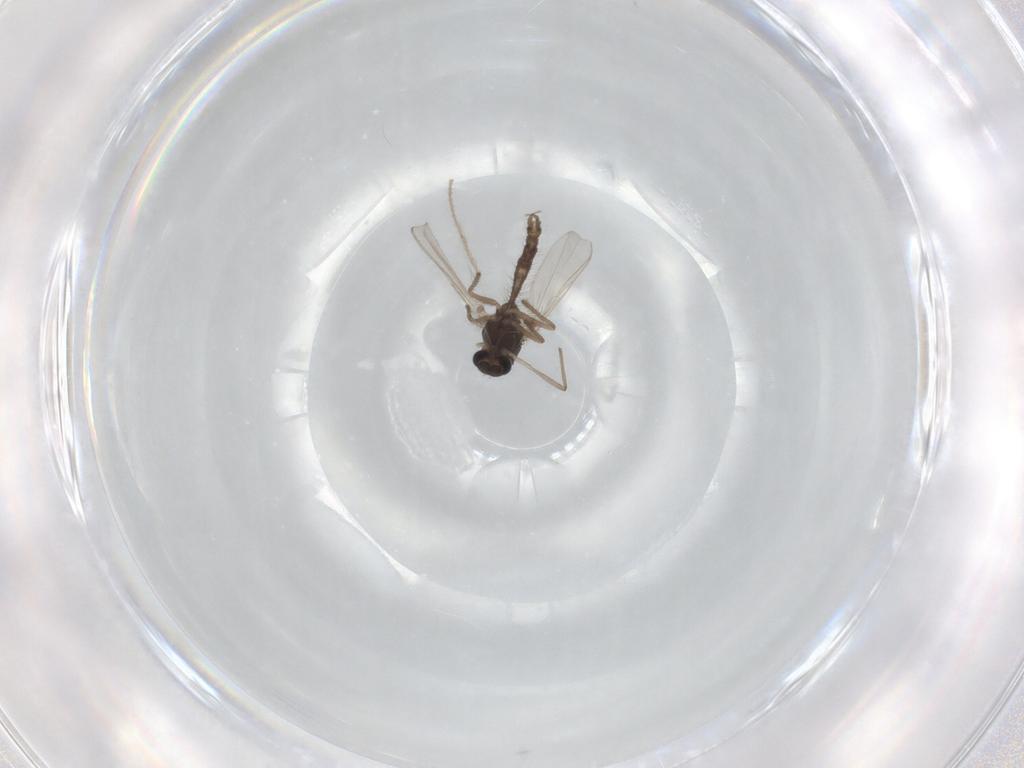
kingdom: Animalia
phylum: Arthropoda
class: Insecta
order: Diptera
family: Chironomidae
